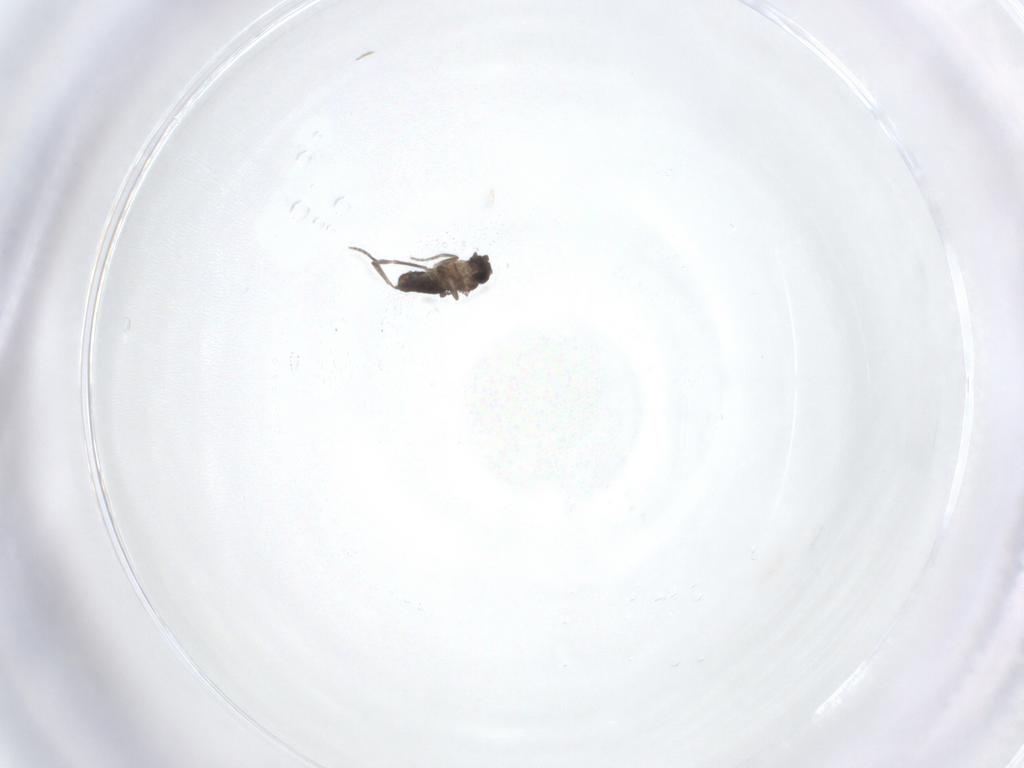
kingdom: Animalia
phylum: Arthropoda
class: Insecta
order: Diptera
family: Phoridae
